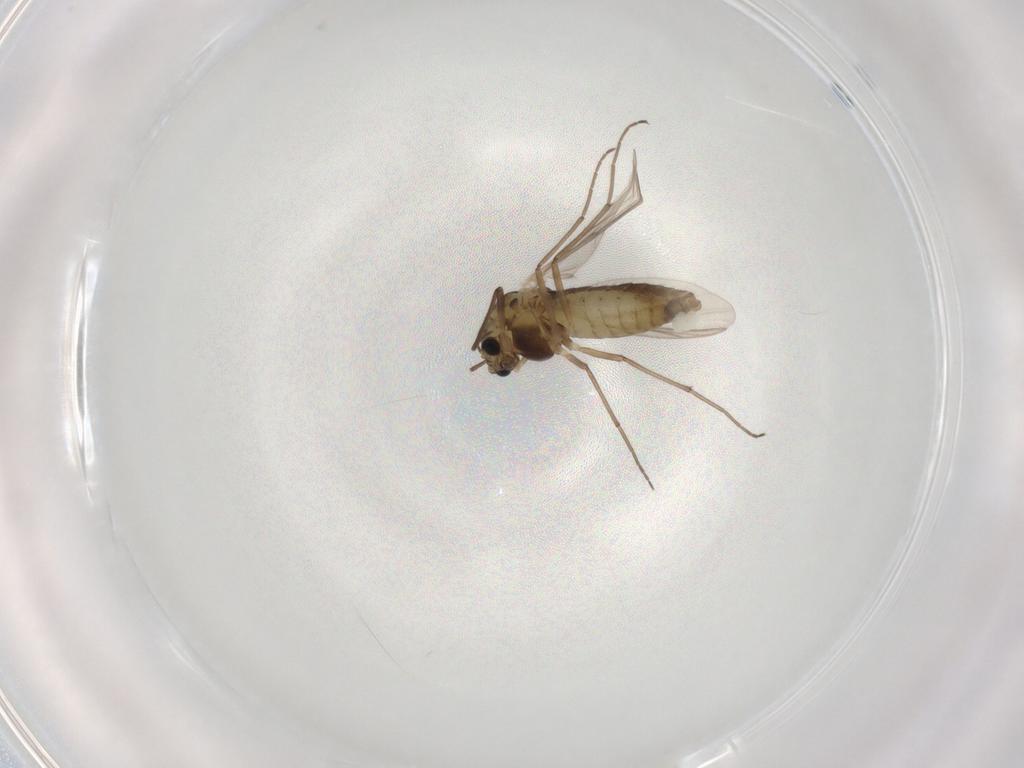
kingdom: Animalia
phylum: Arthropoda
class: Insecta
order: Diptera
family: Chironomidae
